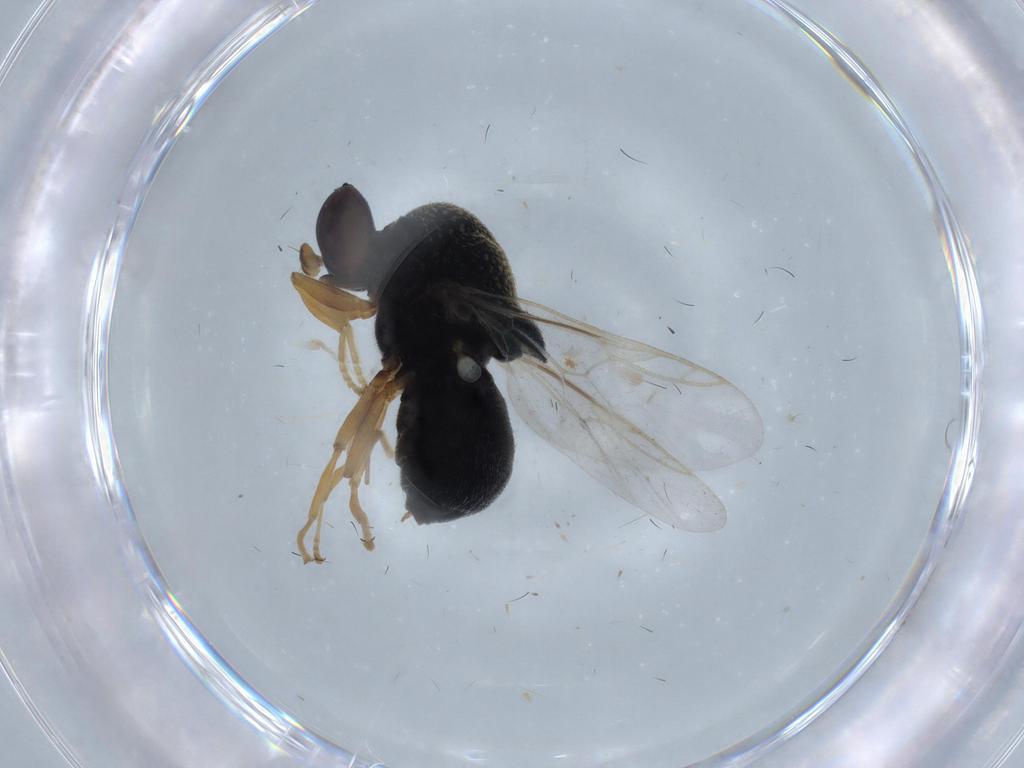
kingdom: Animalia
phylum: Arthropoda
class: Insecta
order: Diptera
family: Stratiomyidae
